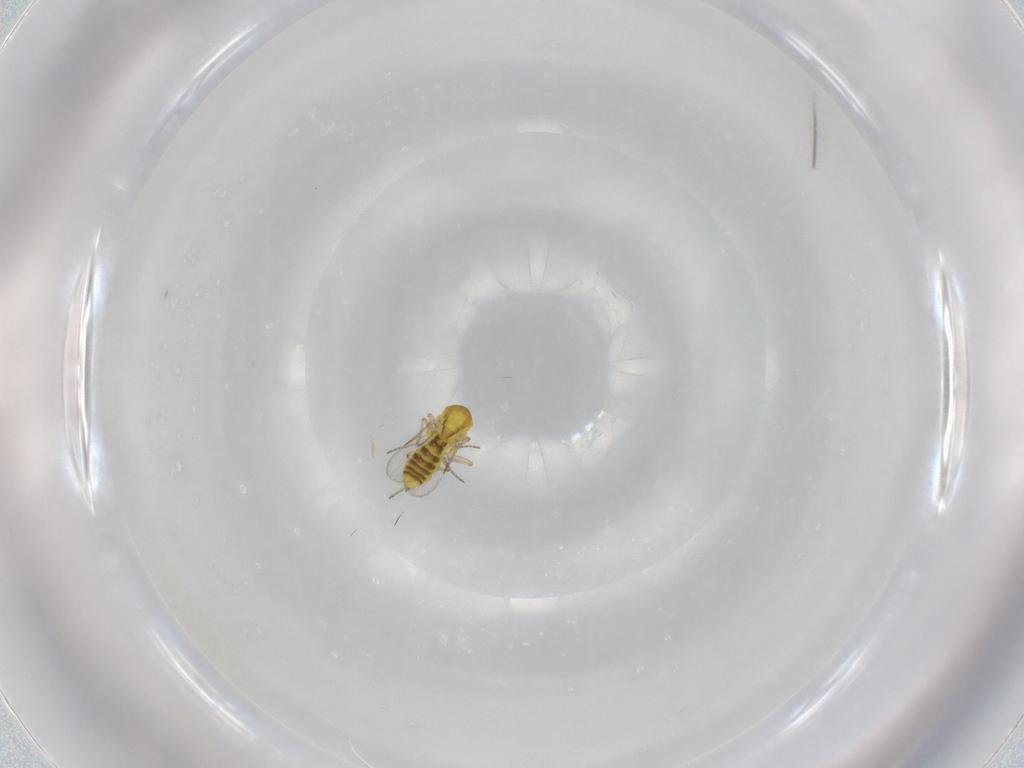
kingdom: Animalia
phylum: Arthropoda
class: Insecta
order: Diptera
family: Ceratopogonidae
